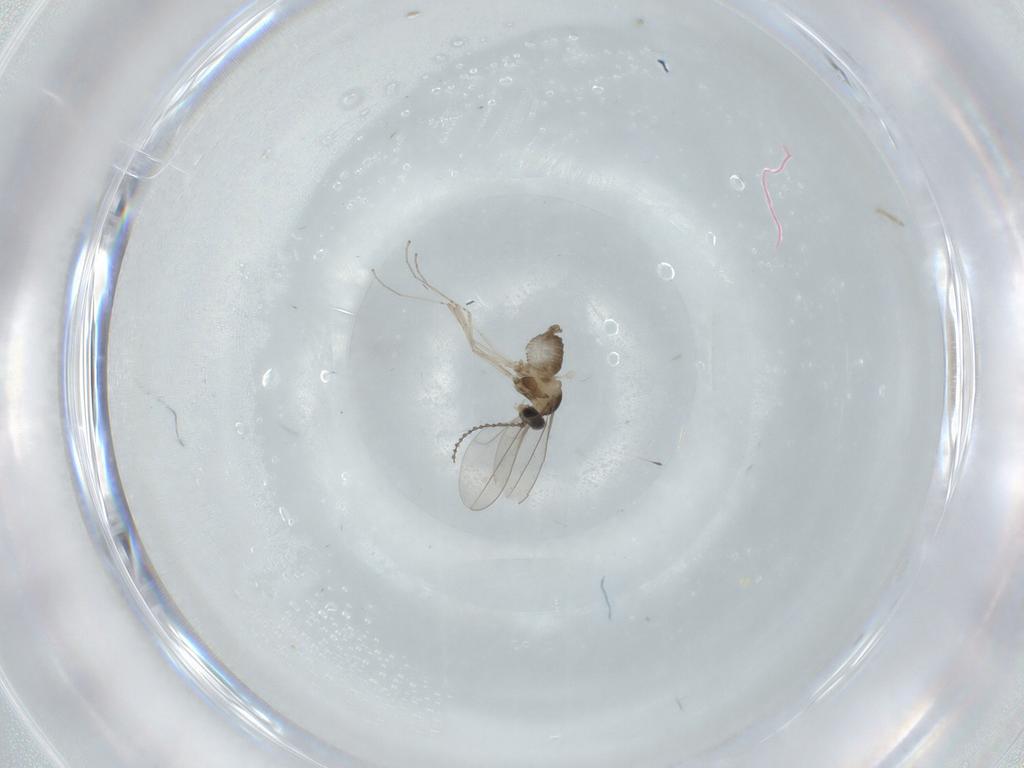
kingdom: Animalia
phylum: Arthropoda
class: Insecta
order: Diptera
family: Cecidomyiidae
